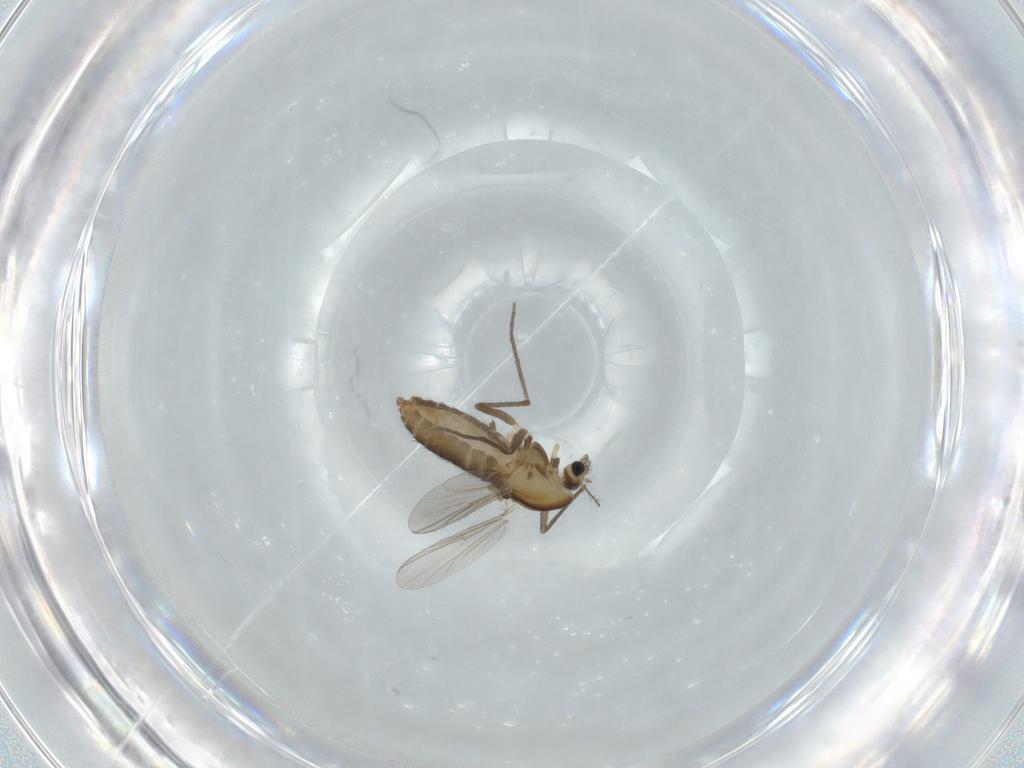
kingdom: Animalia
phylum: Arthropoda
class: Insecta
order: Diptera
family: Chironomidae
